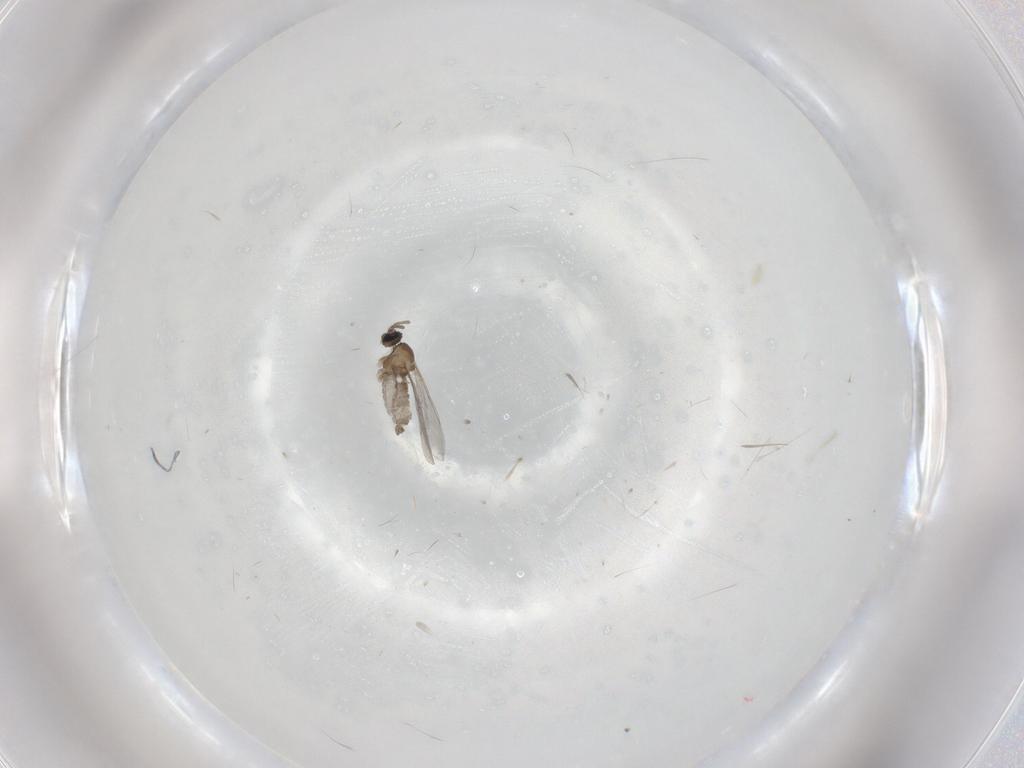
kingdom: Animalia
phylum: Arthropoda
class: Insecta
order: Diptera
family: Cecidomyiidae
